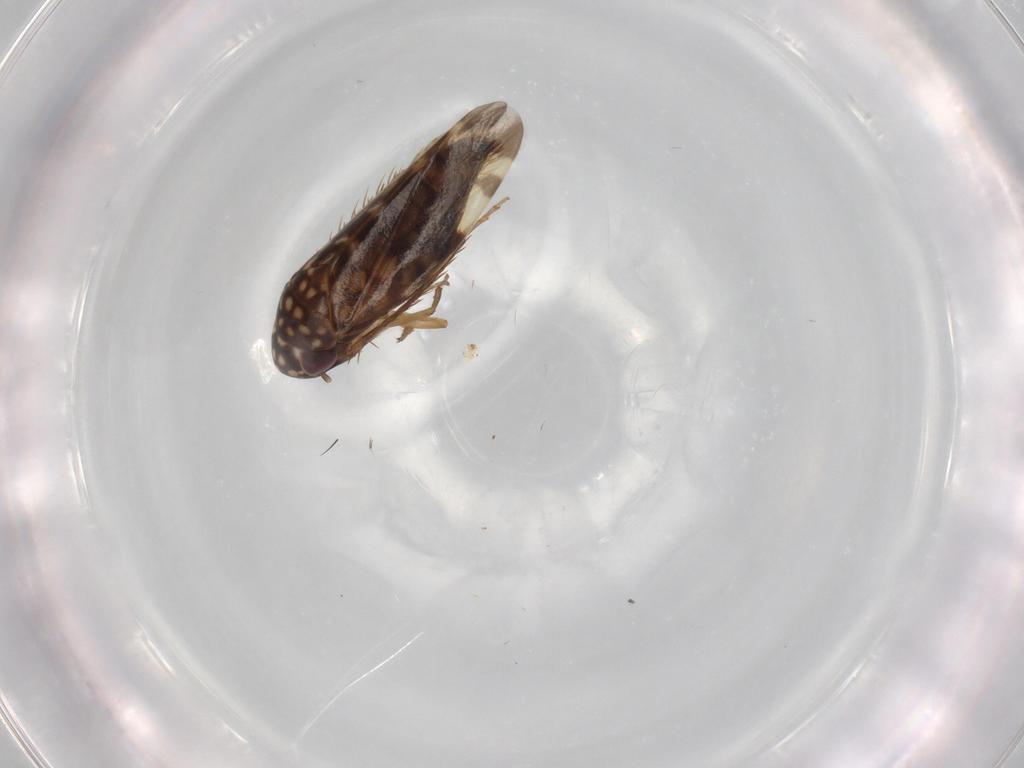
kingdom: Animalia
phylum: Arthropoda
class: Insecta
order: Hemiptera
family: Cicadellidae
